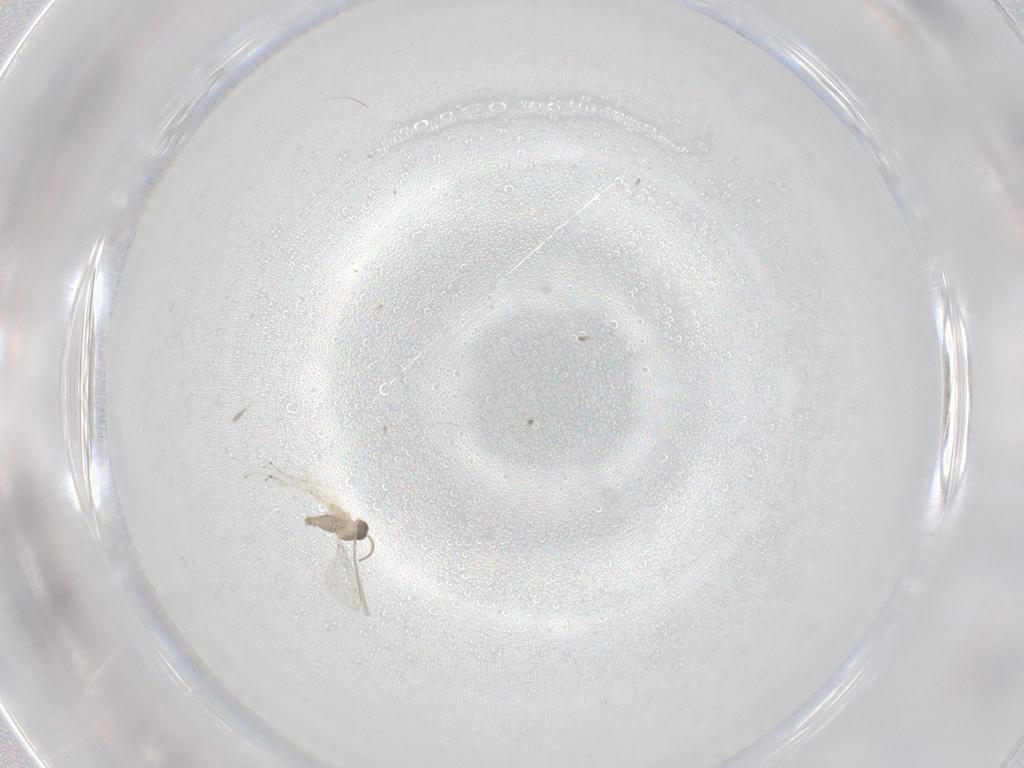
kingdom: Animalia
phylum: Arthropoda
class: Insecta
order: Diptera
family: Cecidomyiidae
